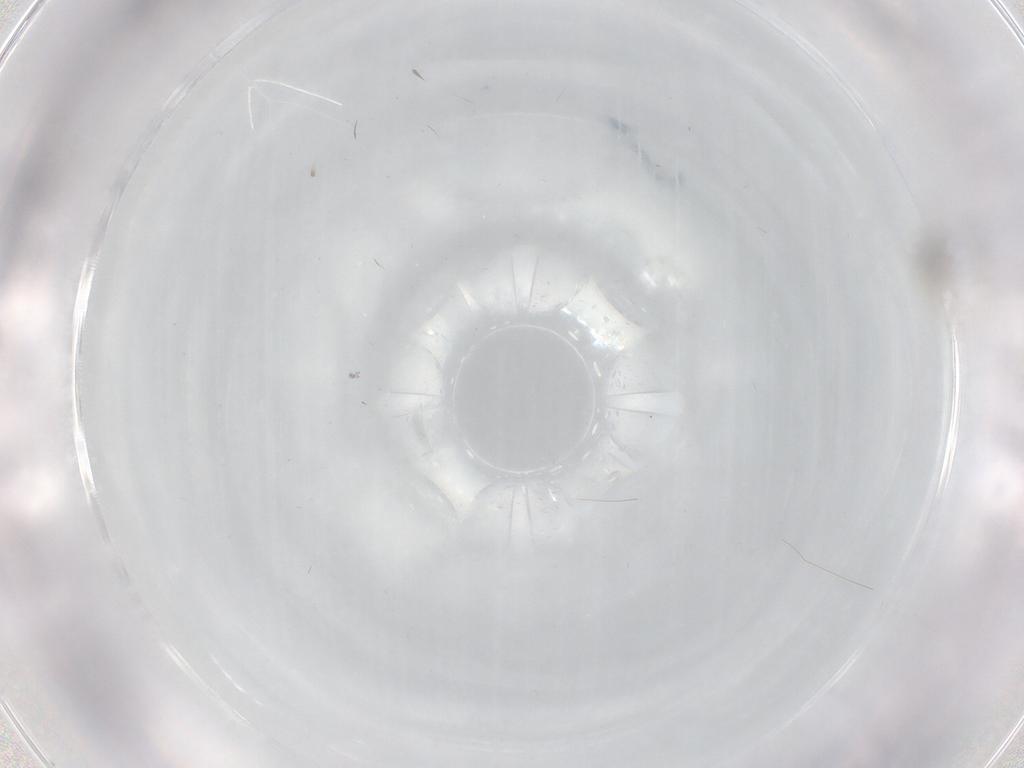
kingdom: Animalia
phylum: Arthropoda
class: Insecta
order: Diptera
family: Cecidomyiidae
